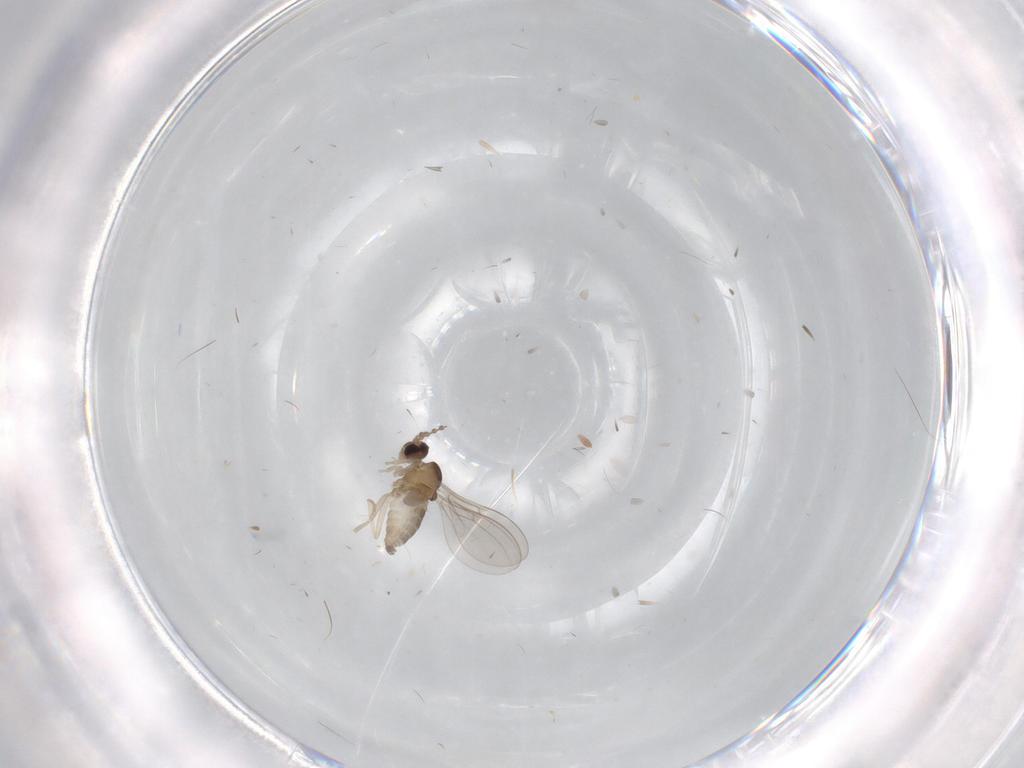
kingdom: Animalia
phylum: Arthropoda
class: Insecta
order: Diptera
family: Cecidomyiidae
